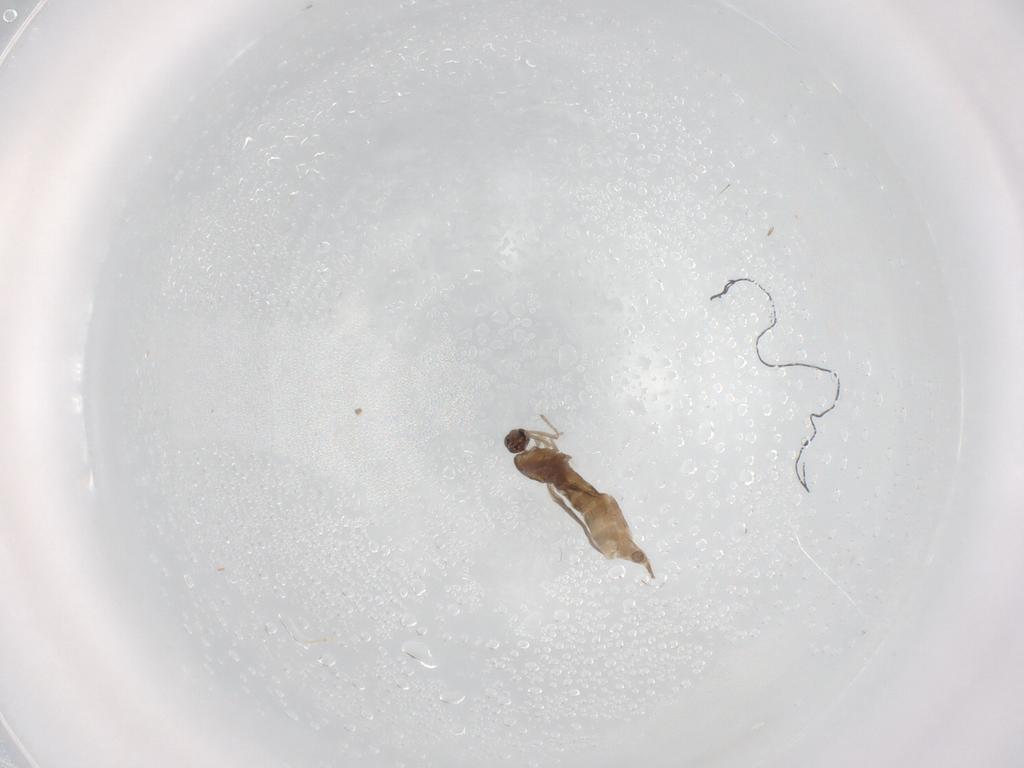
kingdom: Animalia
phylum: Arthropoda
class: Insecta
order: Diptera
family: Cecidomyiidae
